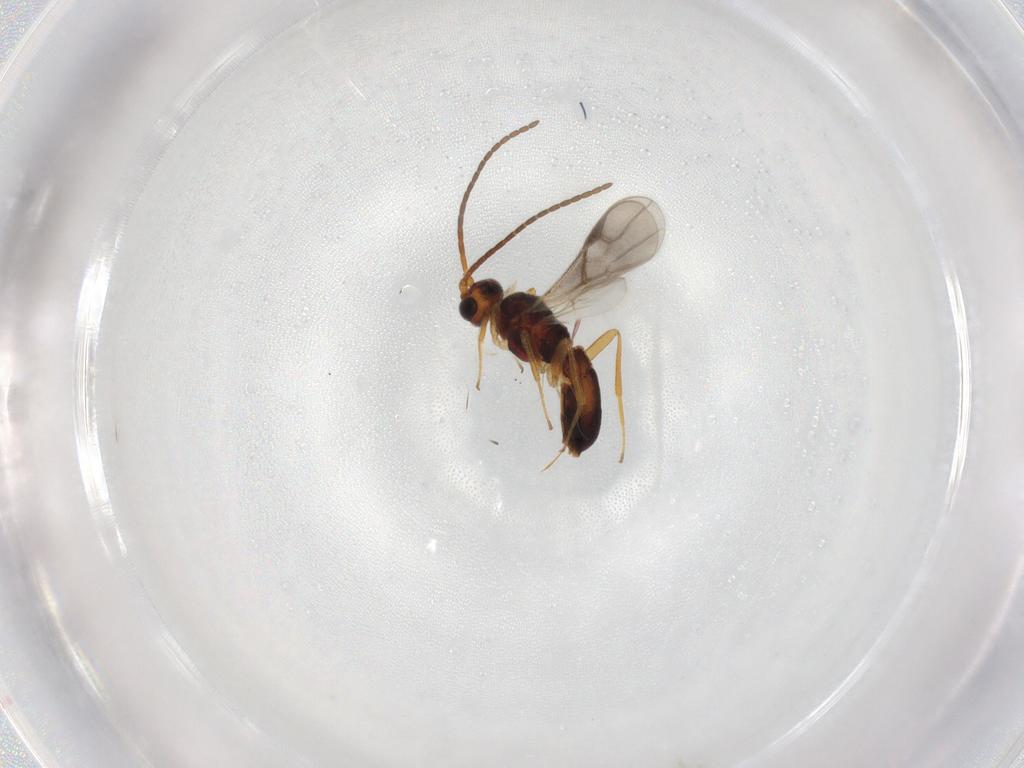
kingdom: Animalia
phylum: Arthropoda
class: Insecta
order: Hymenoptera
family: Braconidae
